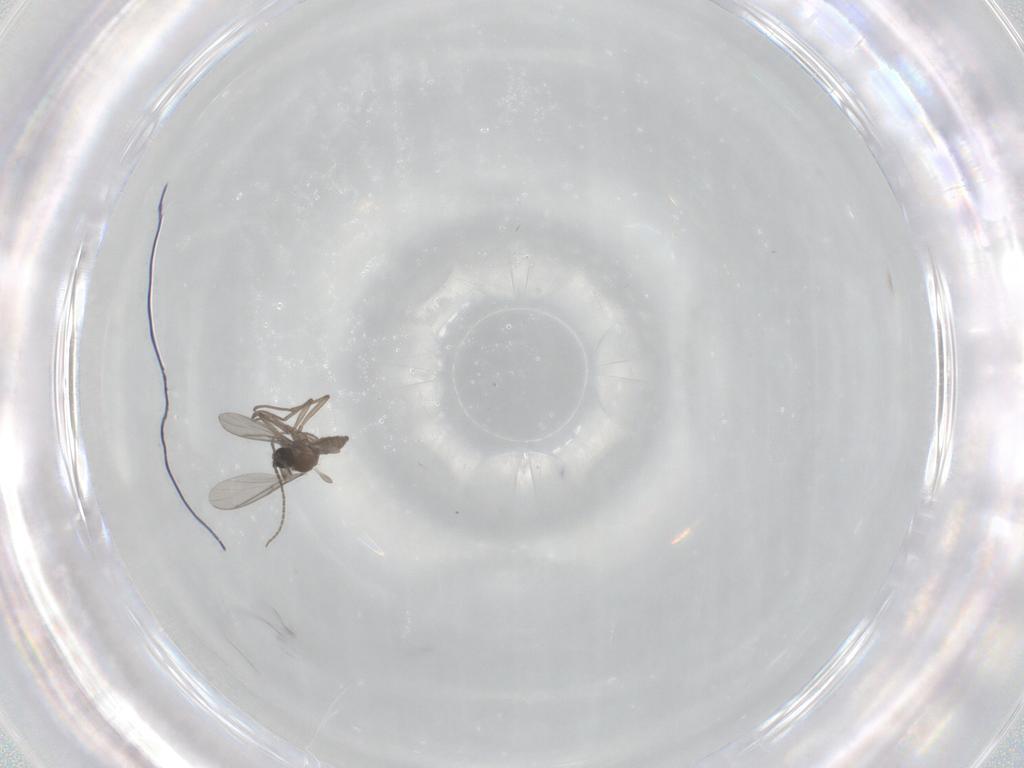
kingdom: Animalia
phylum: Arthropoda
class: Insecta
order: Diptera
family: Sciaridae
